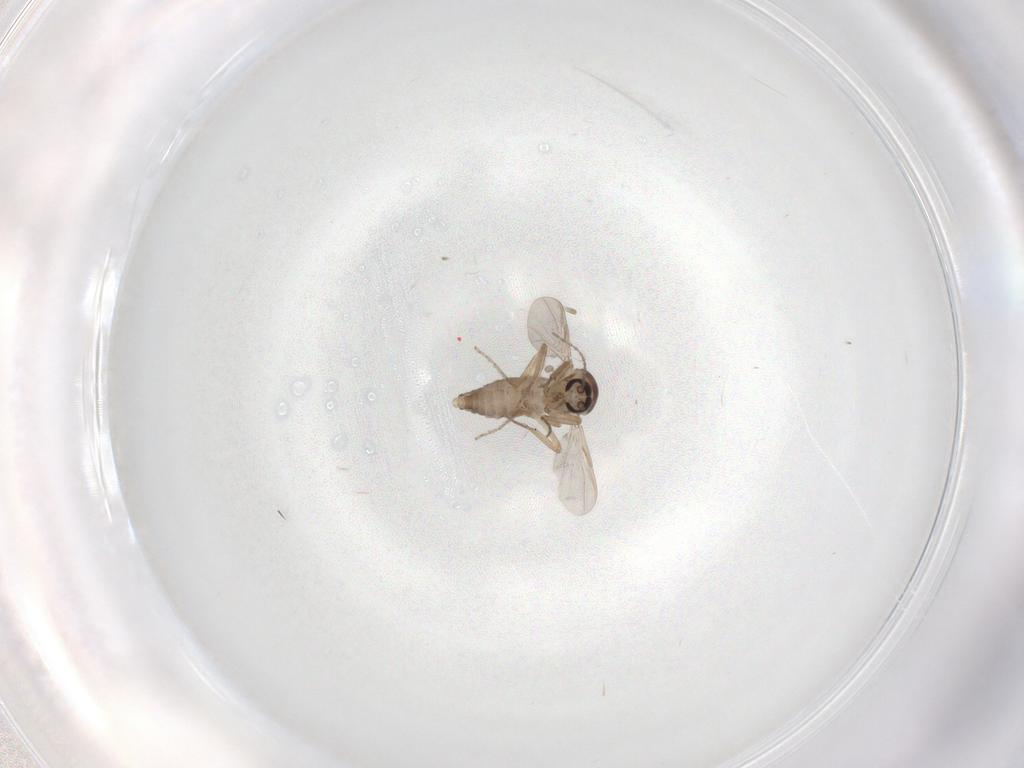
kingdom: Animalia
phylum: Arthropoda
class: Insecta
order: Diptera
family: Ceratopogonidae
